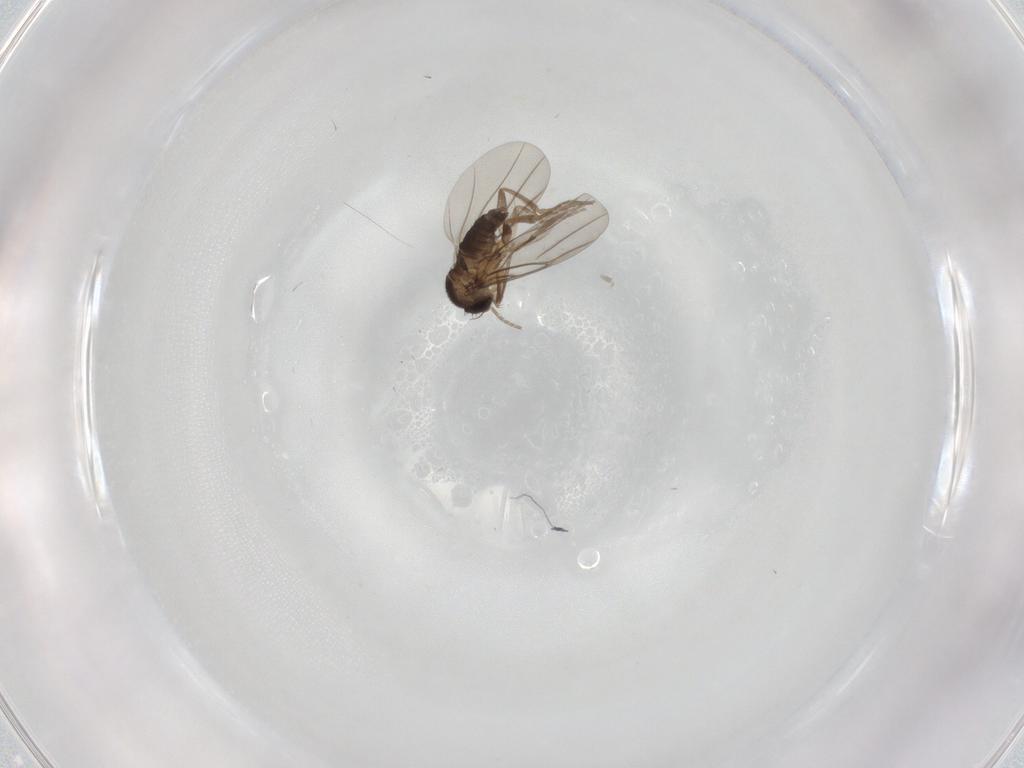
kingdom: Animalia
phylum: Arthropoda
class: Insecta
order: Diptera
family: Phoridae
